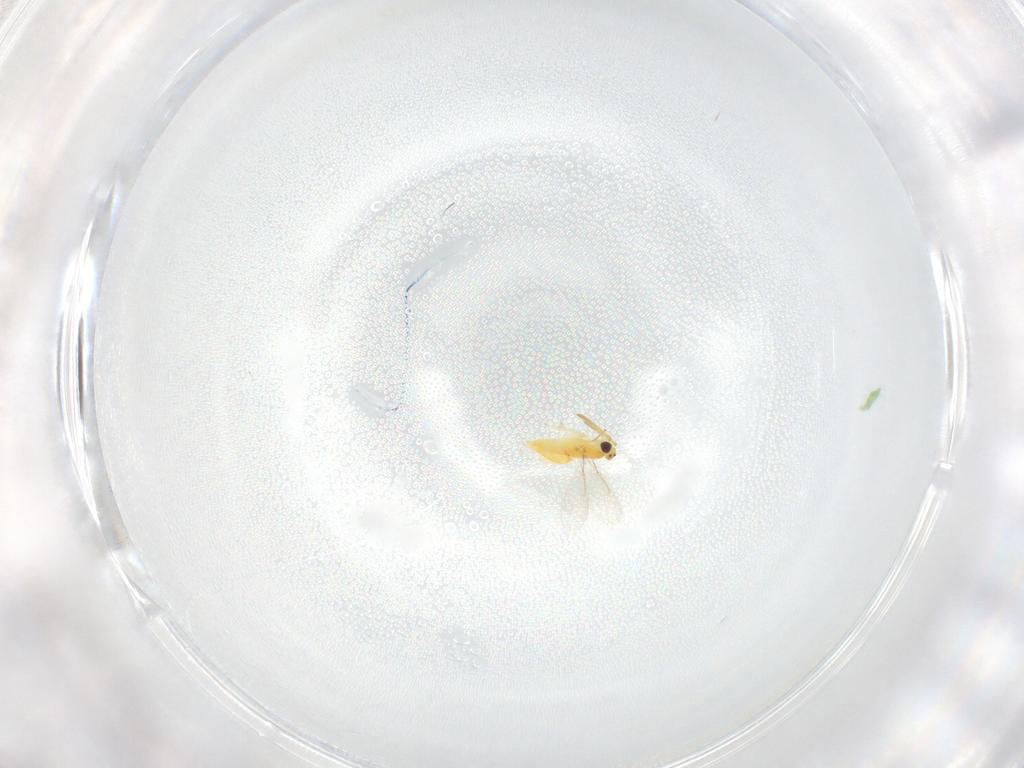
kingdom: Animalia
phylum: Arthropoda
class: Insecta
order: Hymenoptera
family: Aphelinidae
